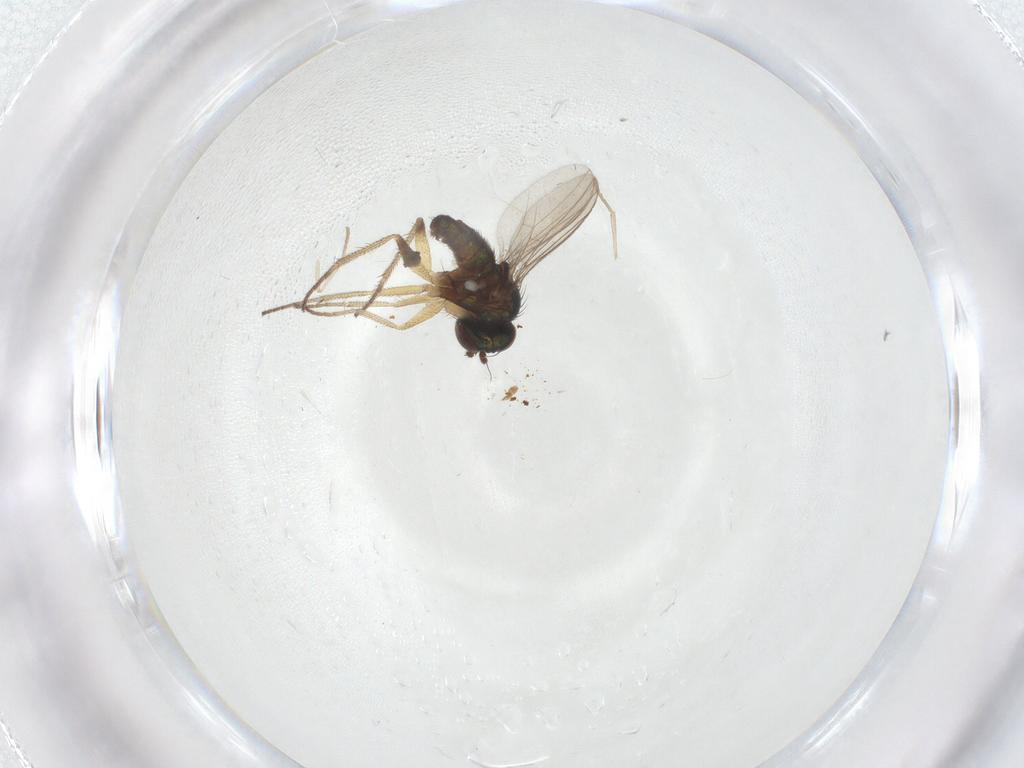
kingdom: Animalia
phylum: Arthropoda
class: Insecta
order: Diptera
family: Dolichopodidae
